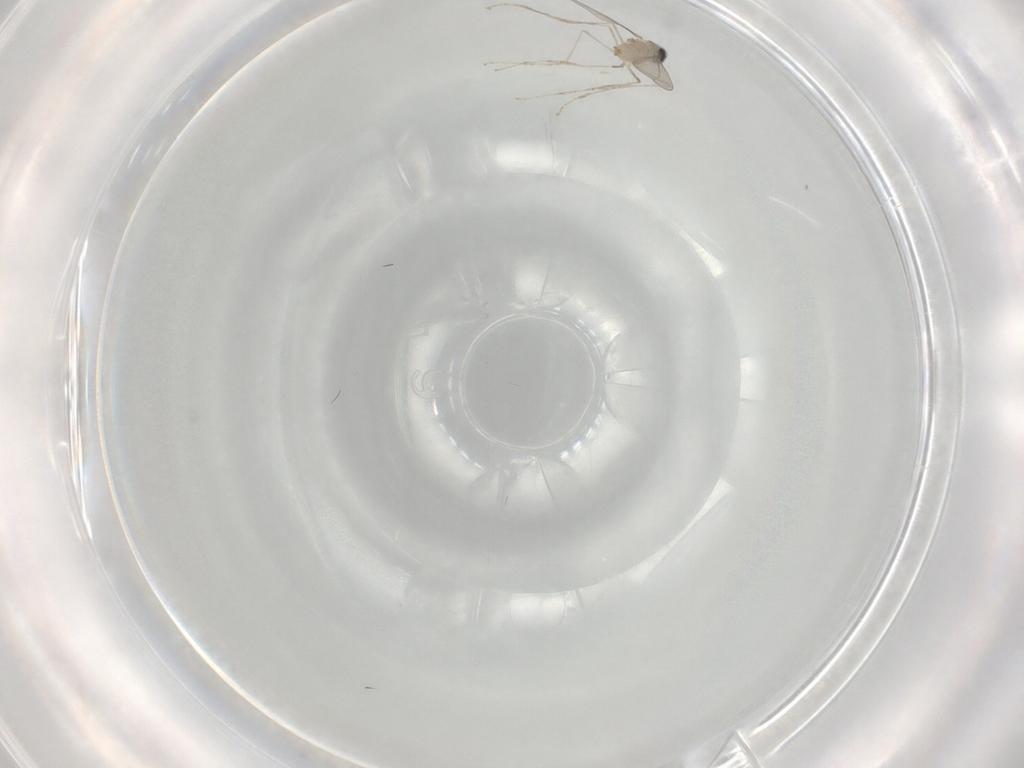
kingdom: Animalia
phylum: Arthropoda
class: Insecta
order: Diptera
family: Cecidomyiidae
